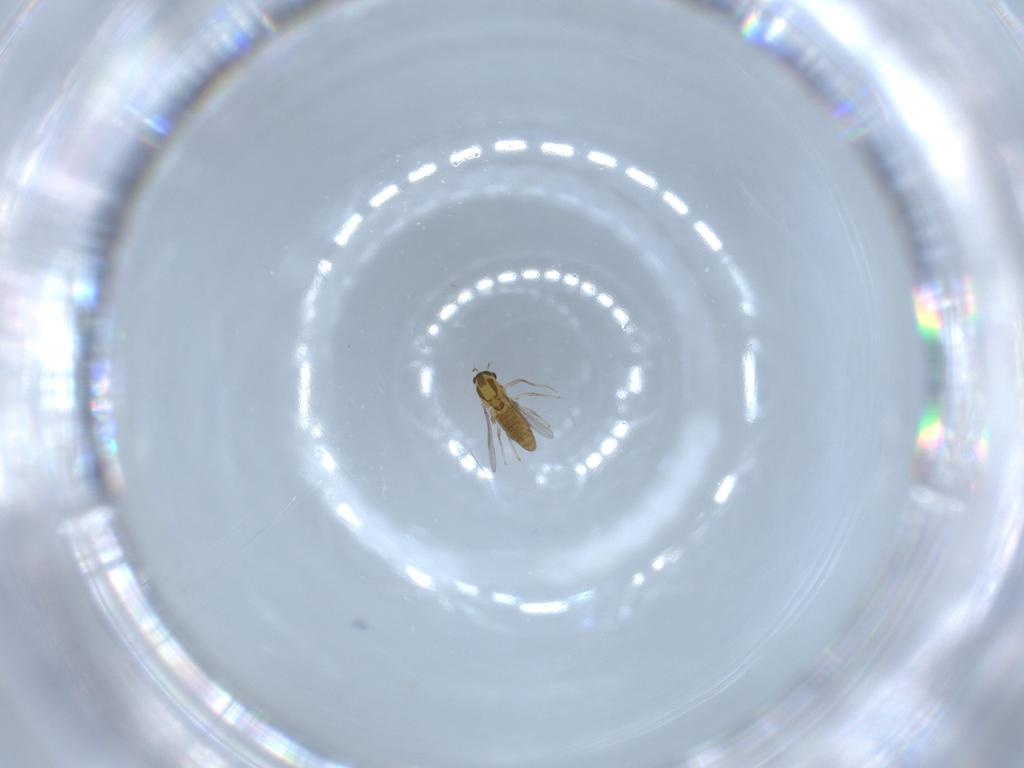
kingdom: Animalia
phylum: Arthropoda
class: Insecta
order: Diptera
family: Chironomidae
